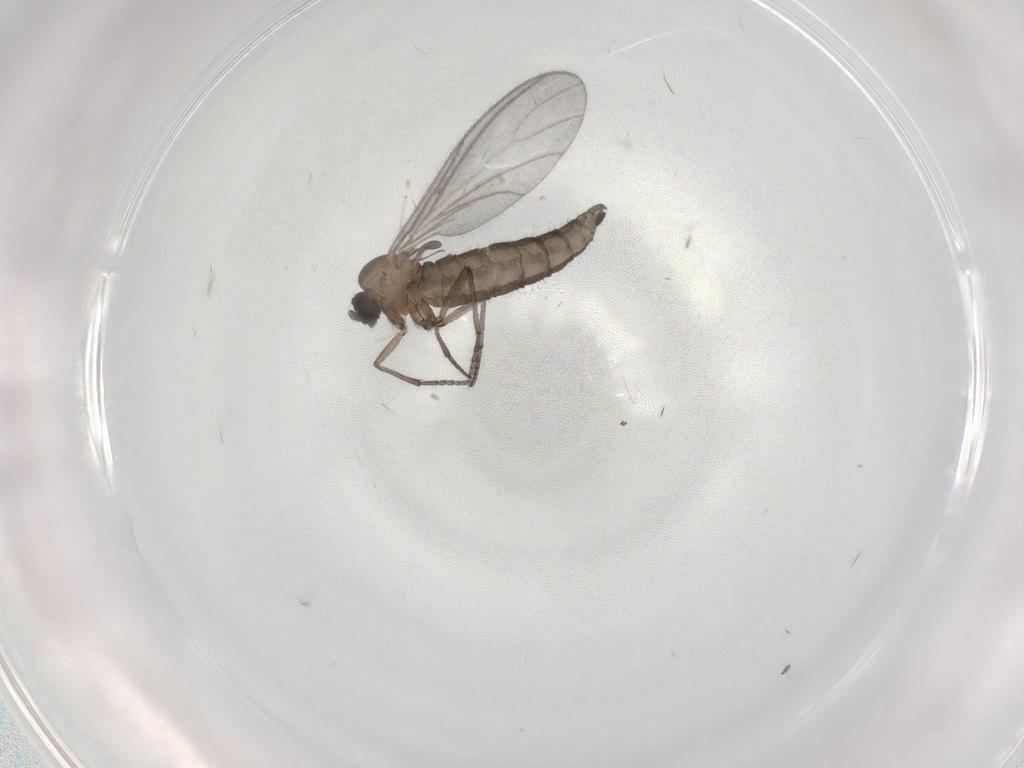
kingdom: Animalia
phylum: Arthropoda
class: Insecta
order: Diptera
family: Sciaridae
